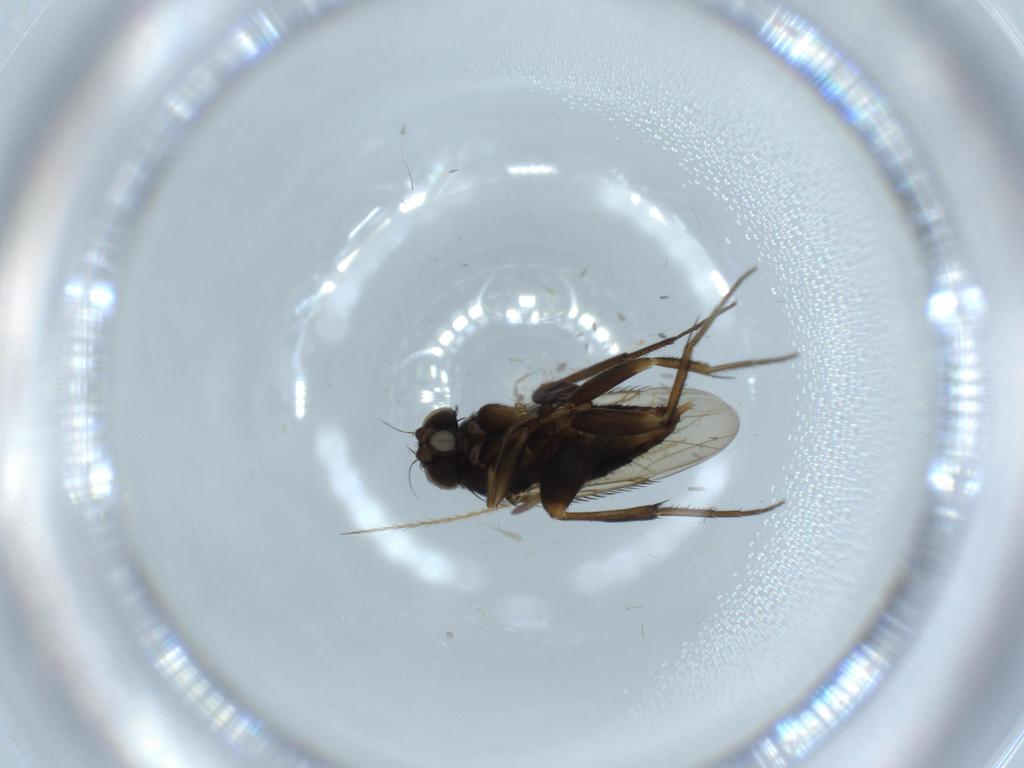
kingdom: Animalia
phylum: Arthropoda
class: Insecta
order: Diptera
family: Phoridae
